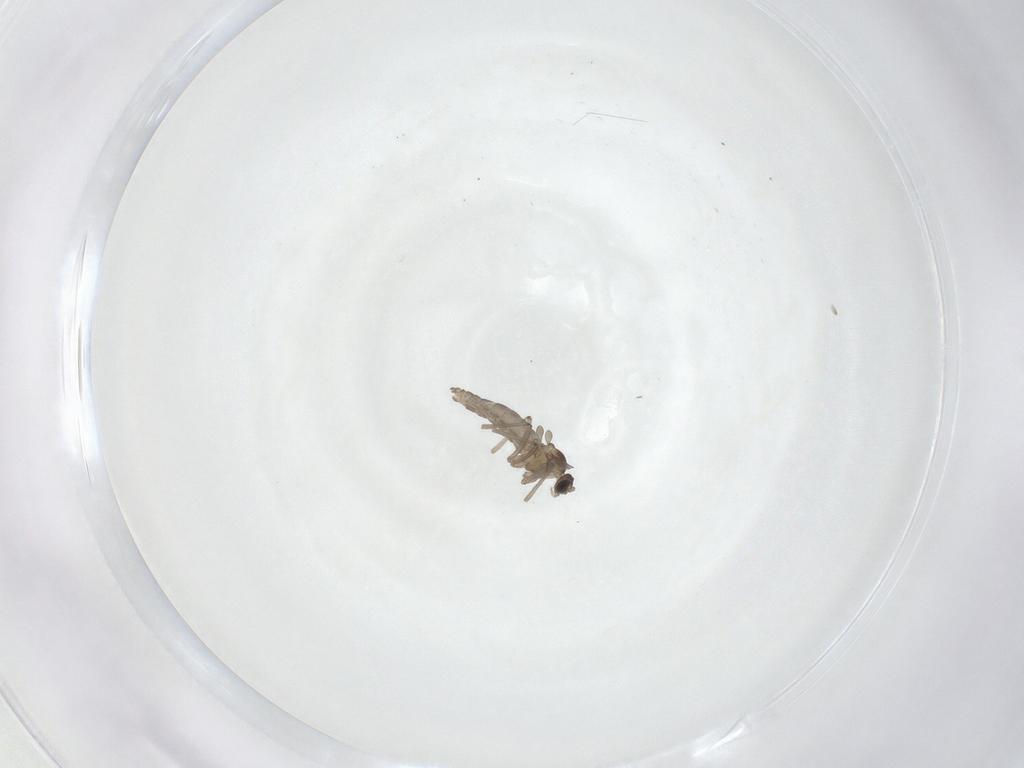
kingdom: Animalia
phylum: Arthropoda
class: Insecta
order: Diptera
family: Cecidomyiidae
